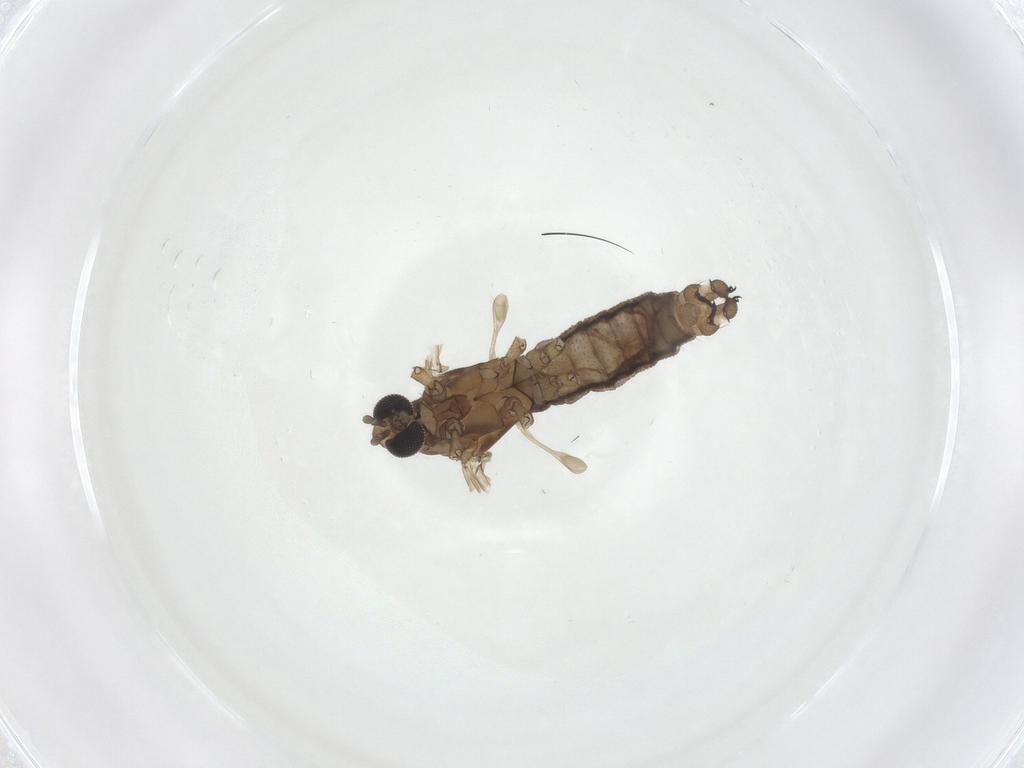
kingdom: Animalia
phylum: Arthropoda
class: Insecta
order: Diptera
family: Limoniidae
